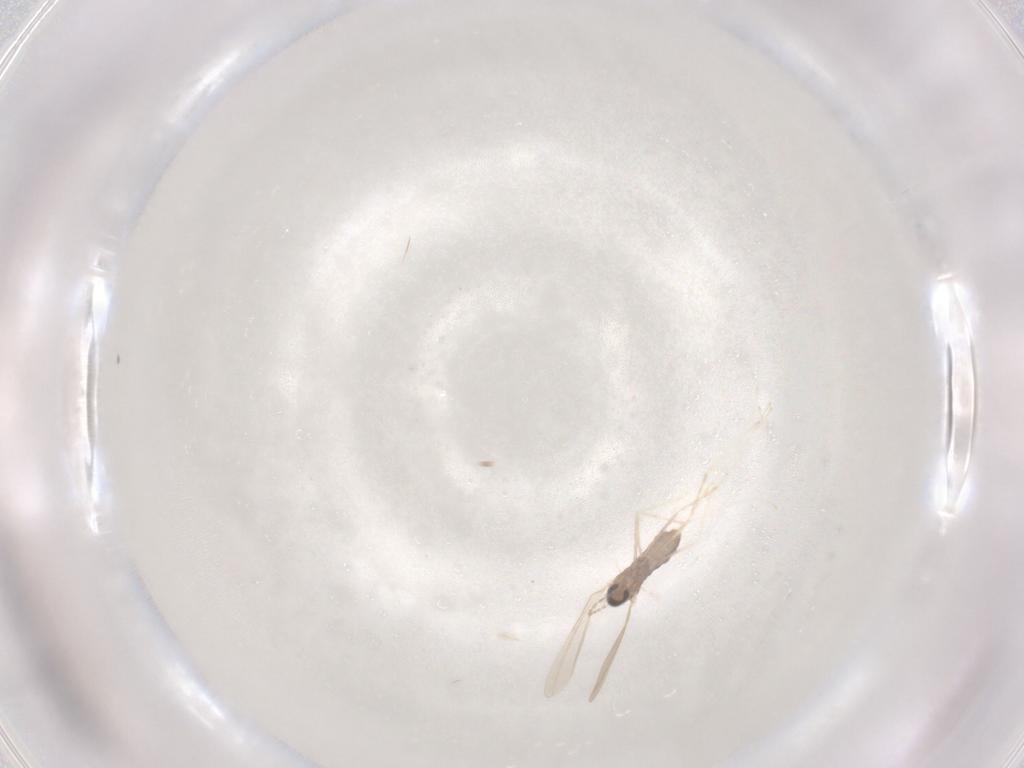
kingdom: Animalia
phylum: Arthropoda
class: Insecta
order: Diptera
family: Cecidomyiidae
